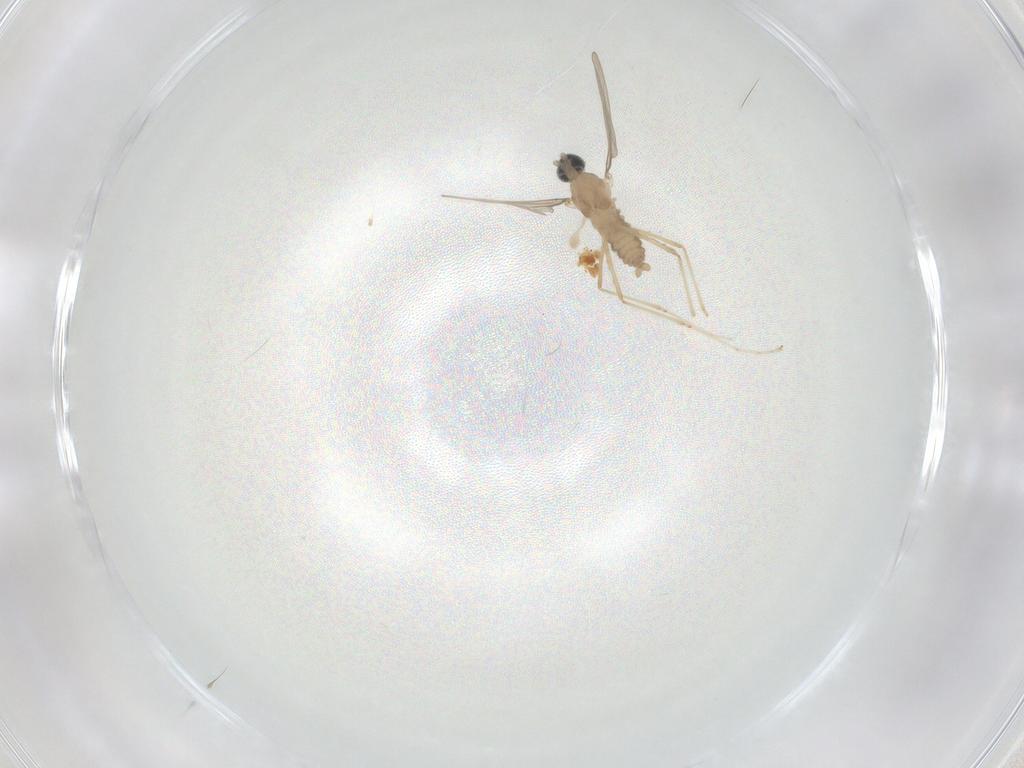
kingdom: Animalia
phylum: Arthropoda
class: Insecta
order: Diptera
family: Cecidomyiidae
